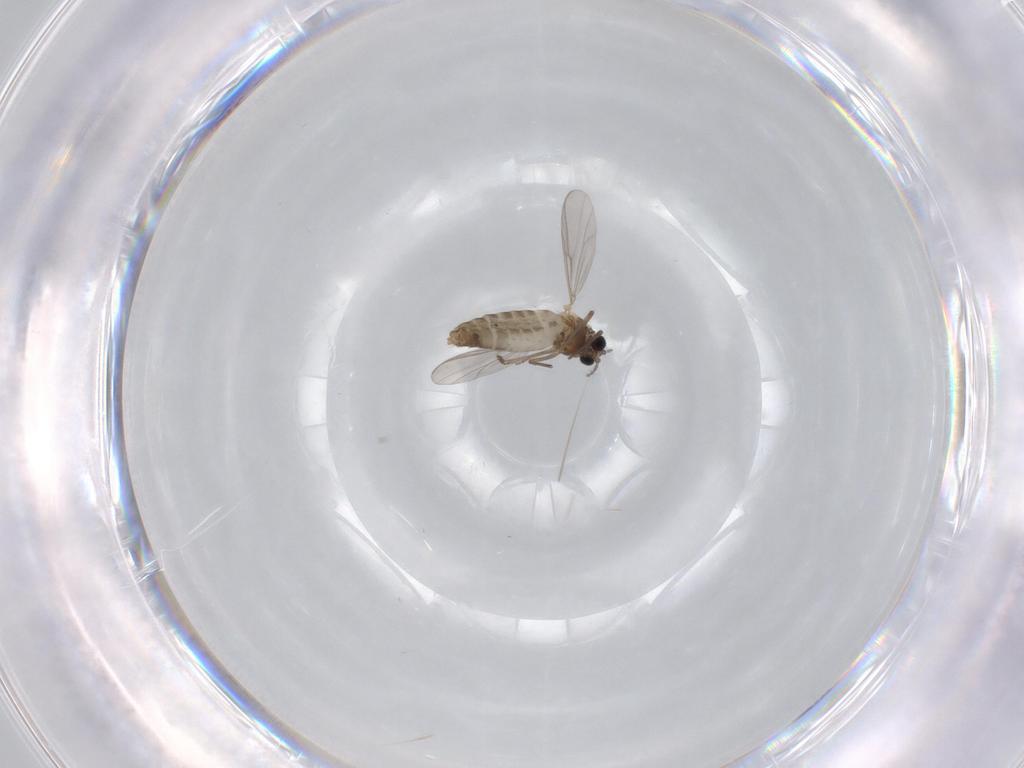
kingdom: Animalia
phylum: Arthropoda
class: Insecta
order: Diptera
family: Chironomidae
